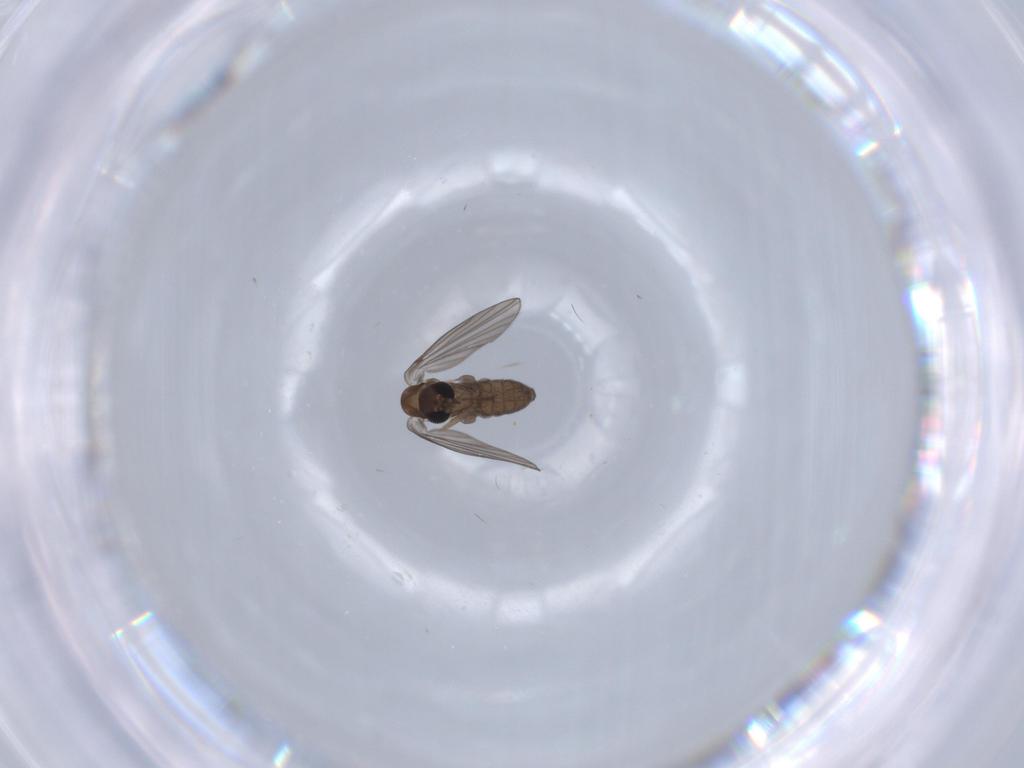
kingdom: Animalia
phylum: Arthropoda
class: Insecta
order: Diptera
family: Psychodidae
